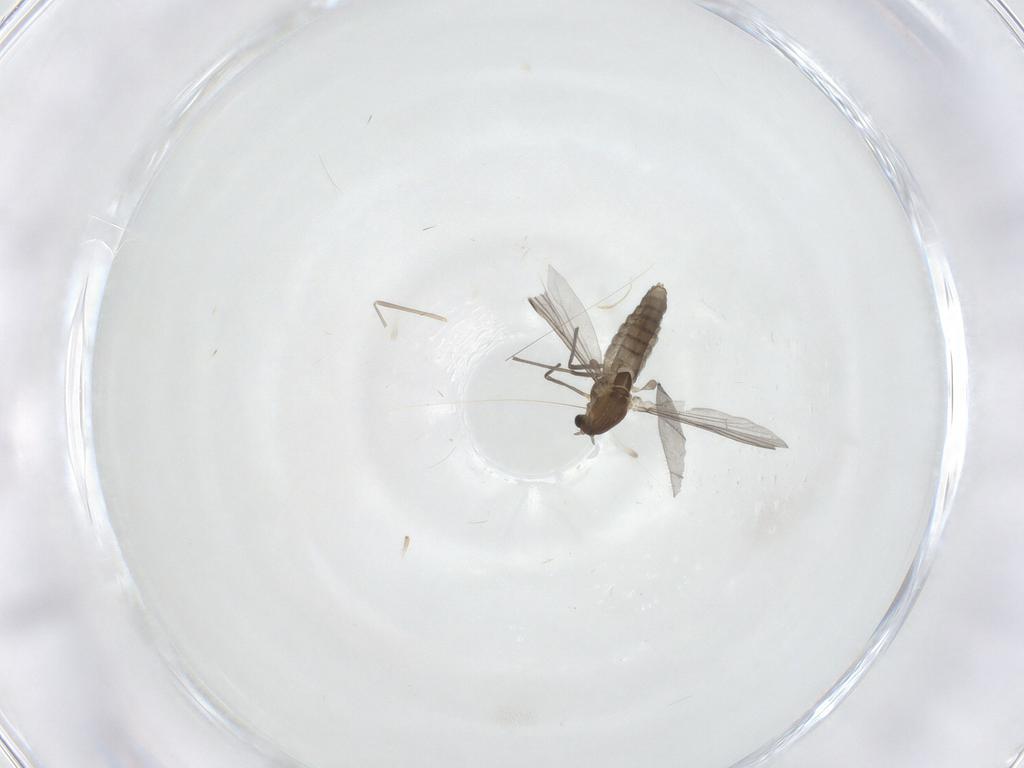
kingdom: Animalia
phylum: Arthropoda
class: Insecta
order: Diptera
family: Chironomidae
